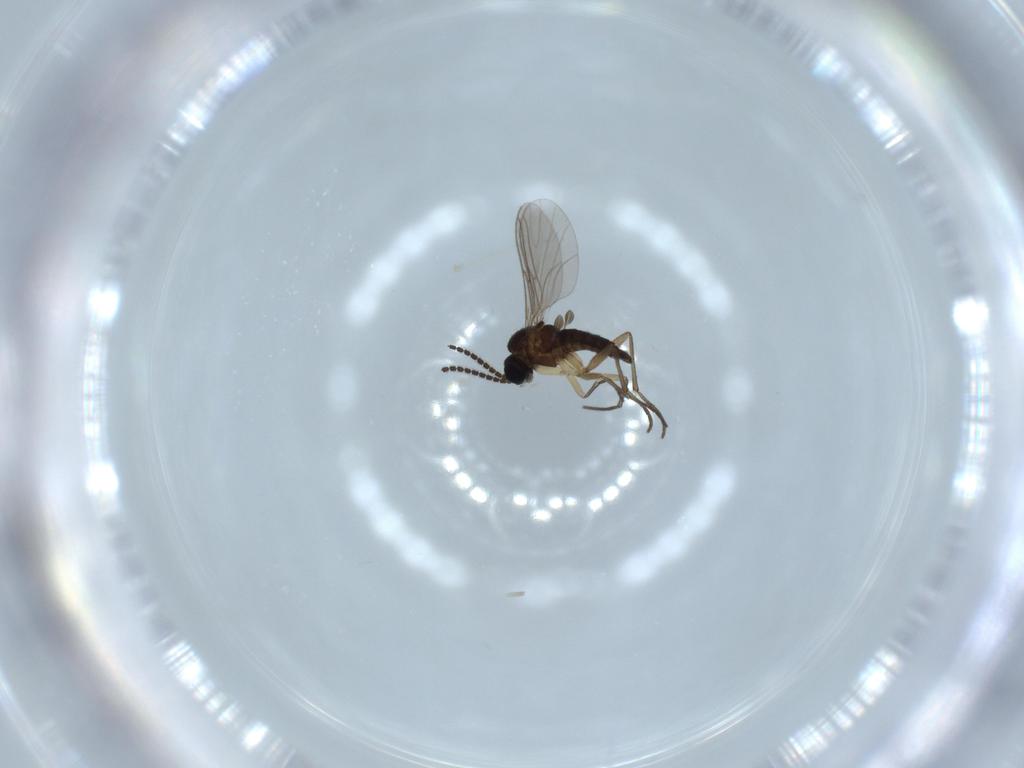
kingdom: Animalia
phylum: Arthropoda
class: Insecta
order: Diptera
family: Sciaridae
